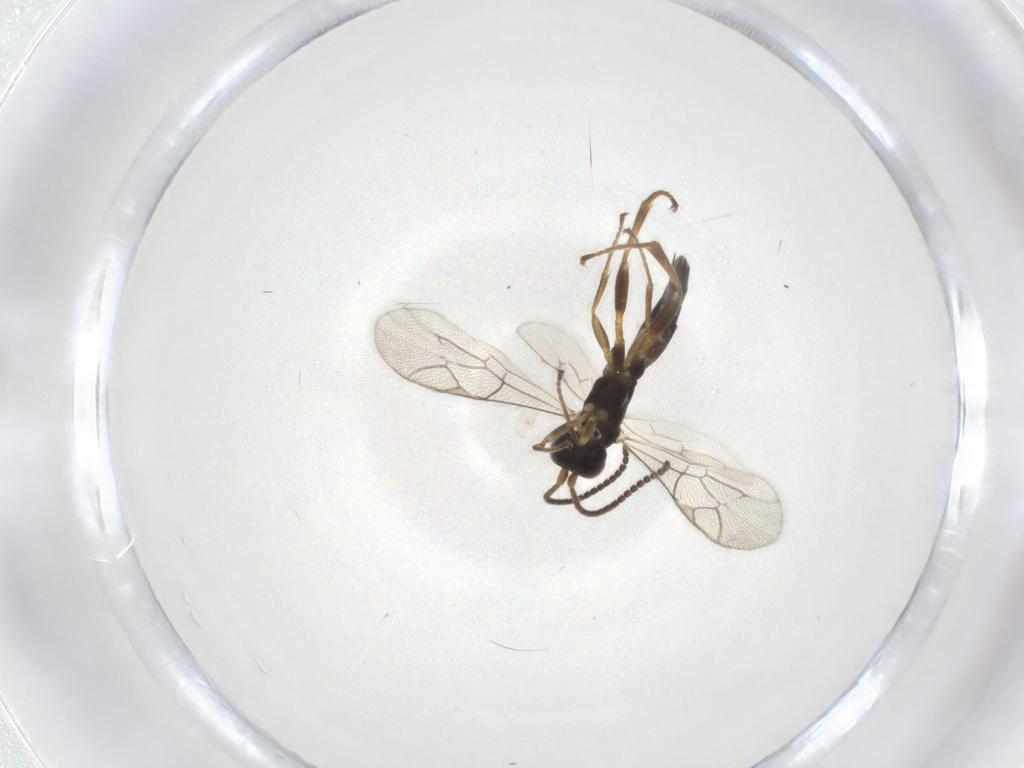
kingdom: Animalia
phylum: Arthropoda
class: Insecta
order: Hymenoptera
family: Ichneumonidae
